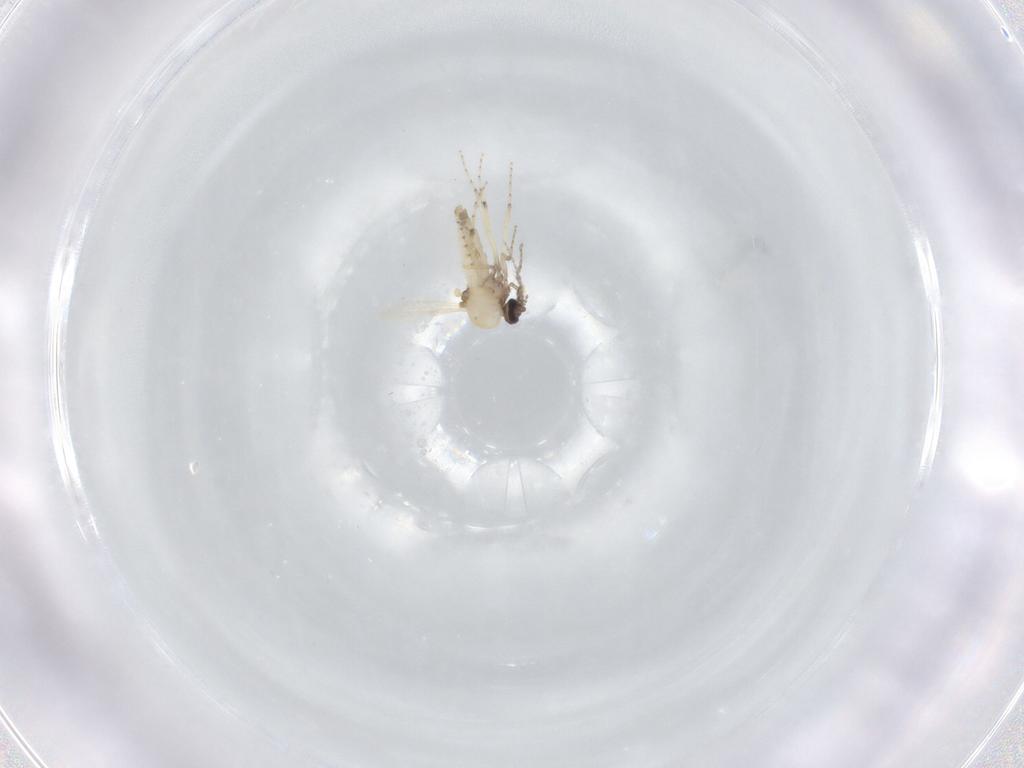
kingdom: Animalia
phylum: Arthropoda
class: Insecta
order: Diptera
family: Ceratopogonidae
